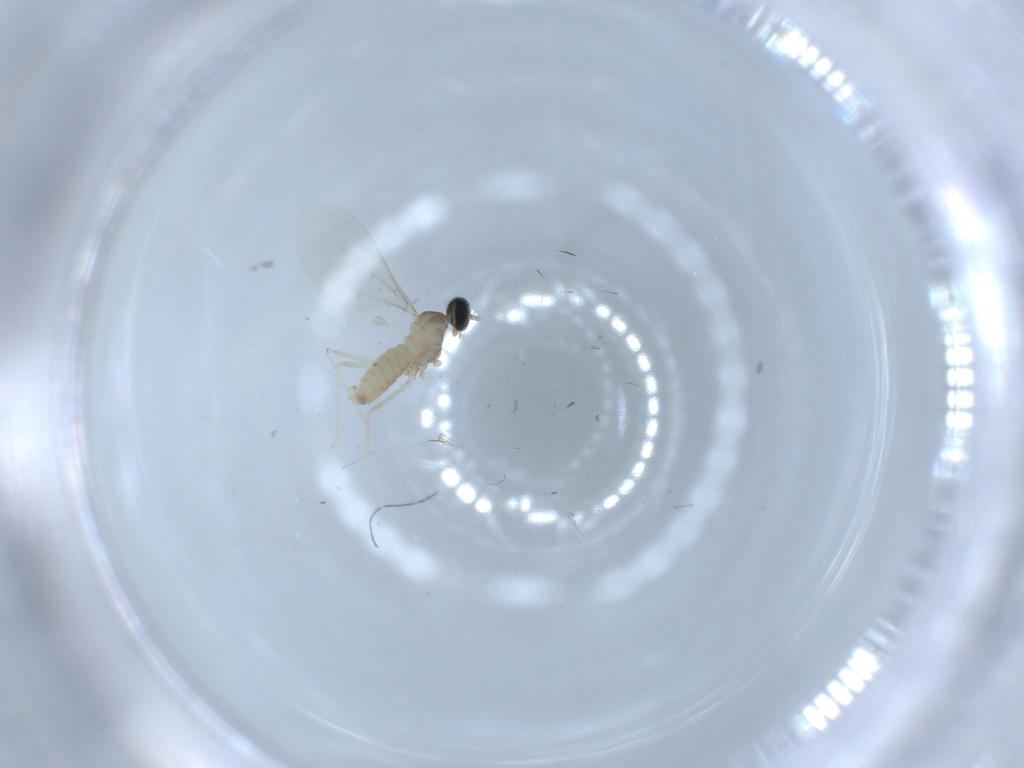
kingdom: Animalia
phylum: Arthropoda
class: Insecta
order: Diptera
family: Cecidomyiidae
